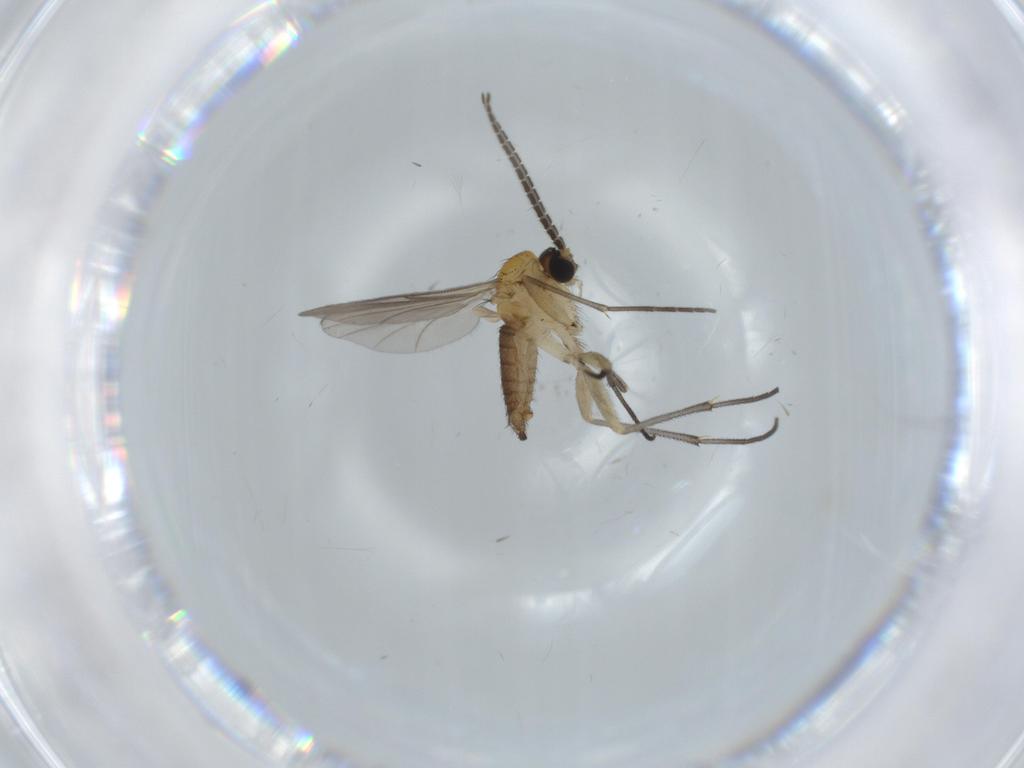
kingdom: Animalia
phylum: Arthropoda
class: Insecta
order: Diptera
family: Sciaridae
